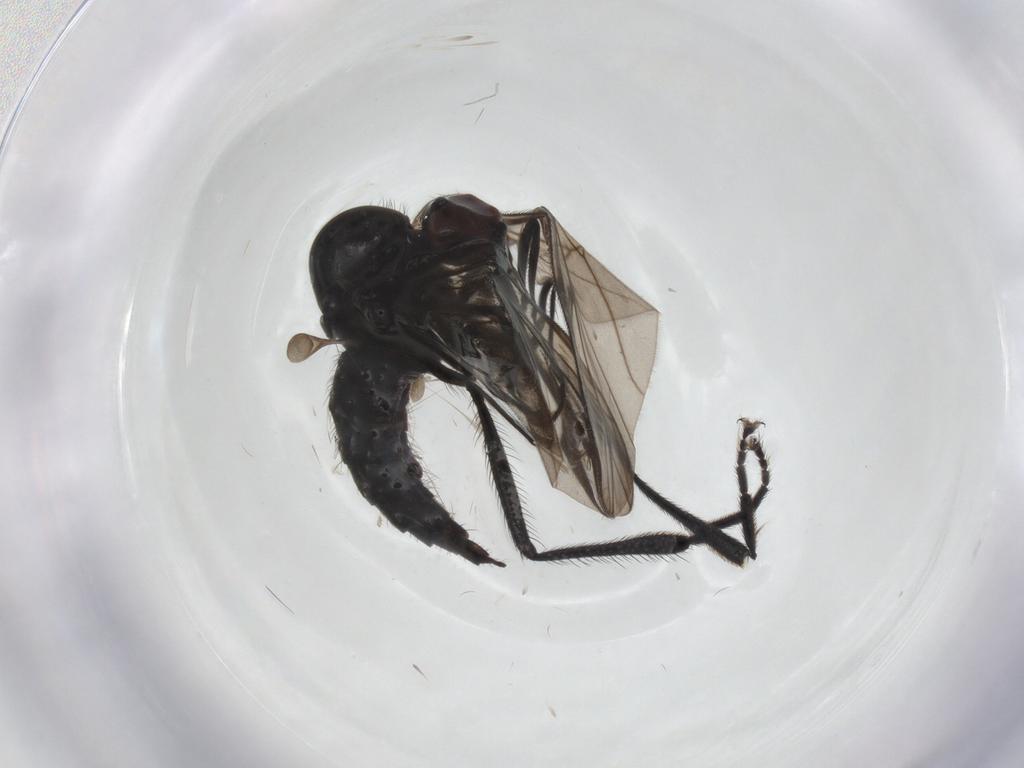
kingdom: Animalia
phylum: Arthropoda
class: Insecta
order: Diptera
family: Hybotidae
